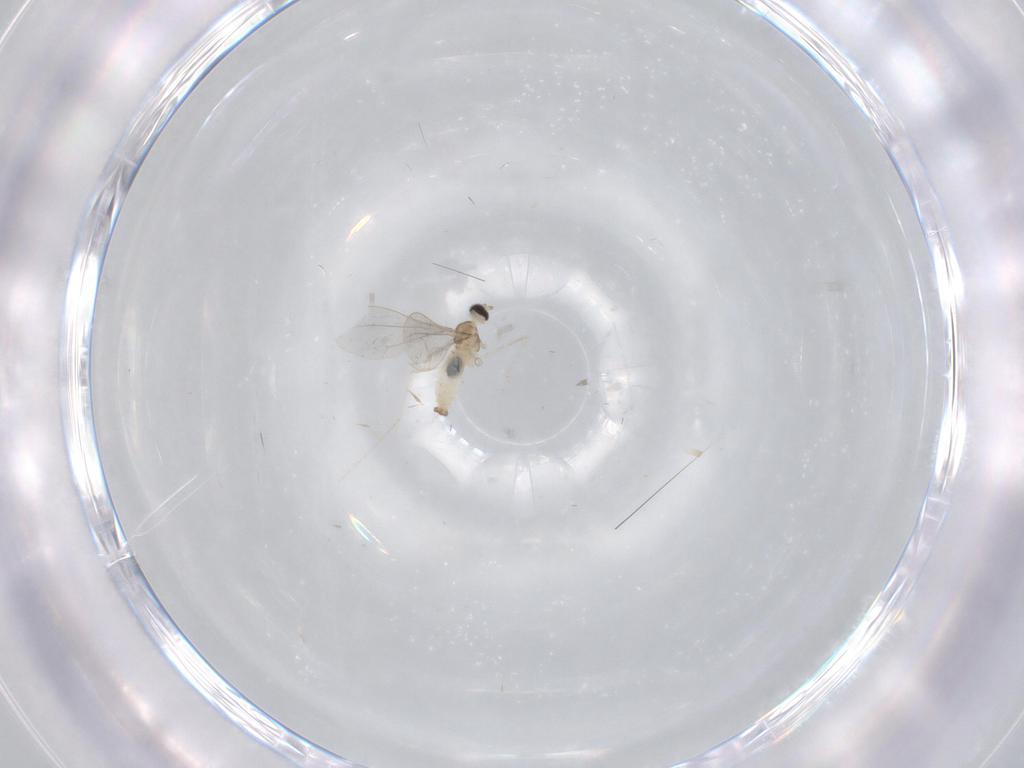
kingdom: Animalia
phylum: Arthropoda
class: Insecta
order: Diptera
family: Cecidomyiidae
